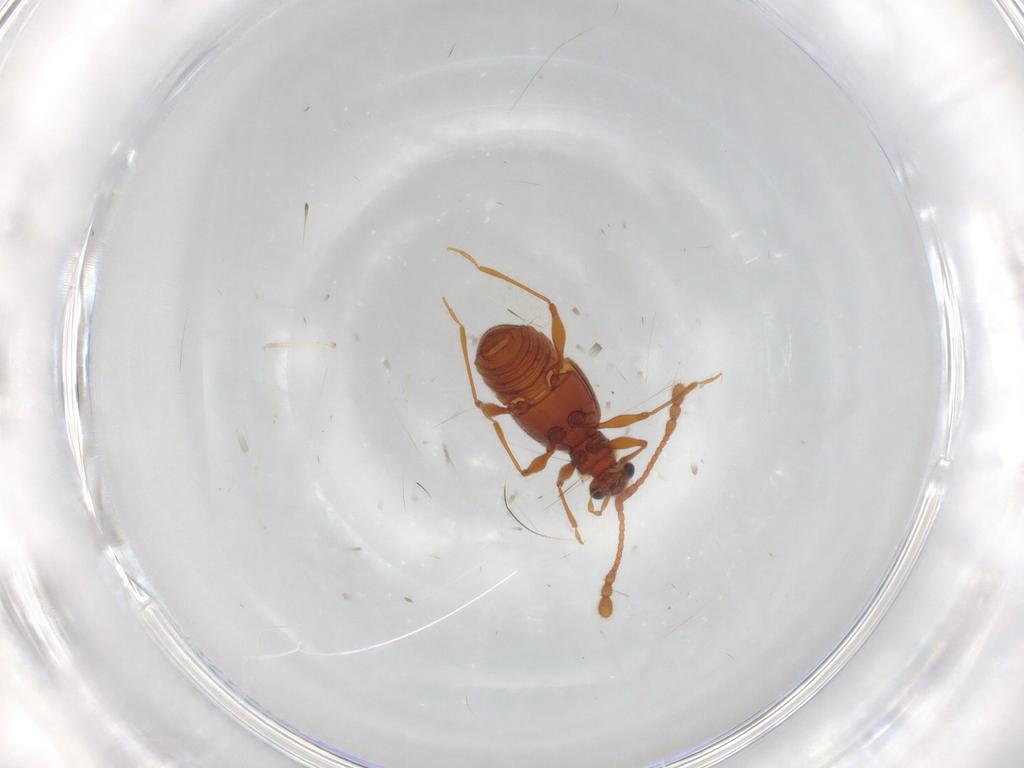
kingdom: Animalia
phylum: Arthropoda
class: Insecta
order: Coleoptera
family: Staphylinidae
